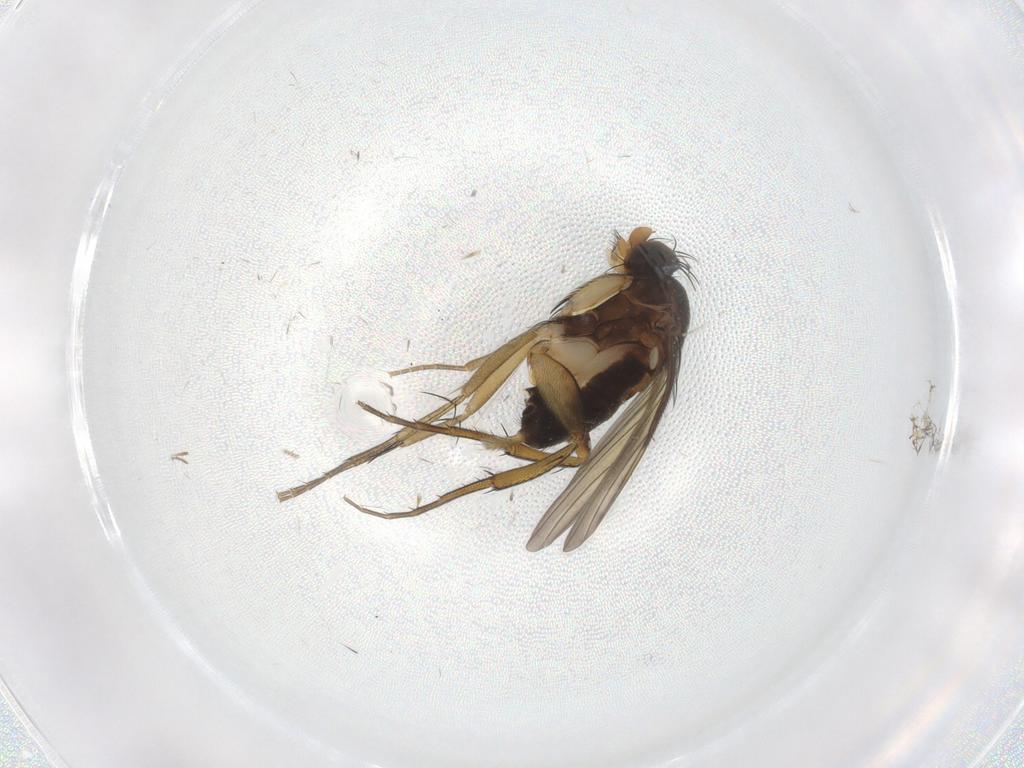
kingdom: Animalia
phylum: Arthropoda
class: Insecta
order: Diptera
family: Phoridae
